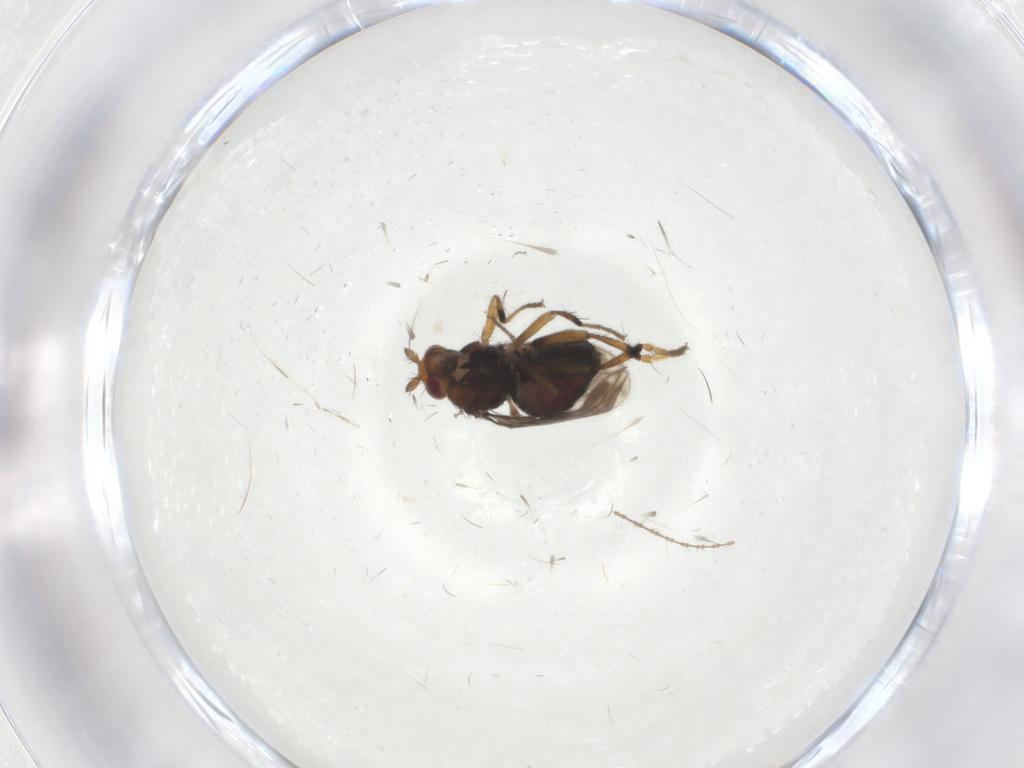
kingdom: Animalia
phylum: Arthropoda
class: Insecta
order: Diptera
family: Sphaeroceridae
